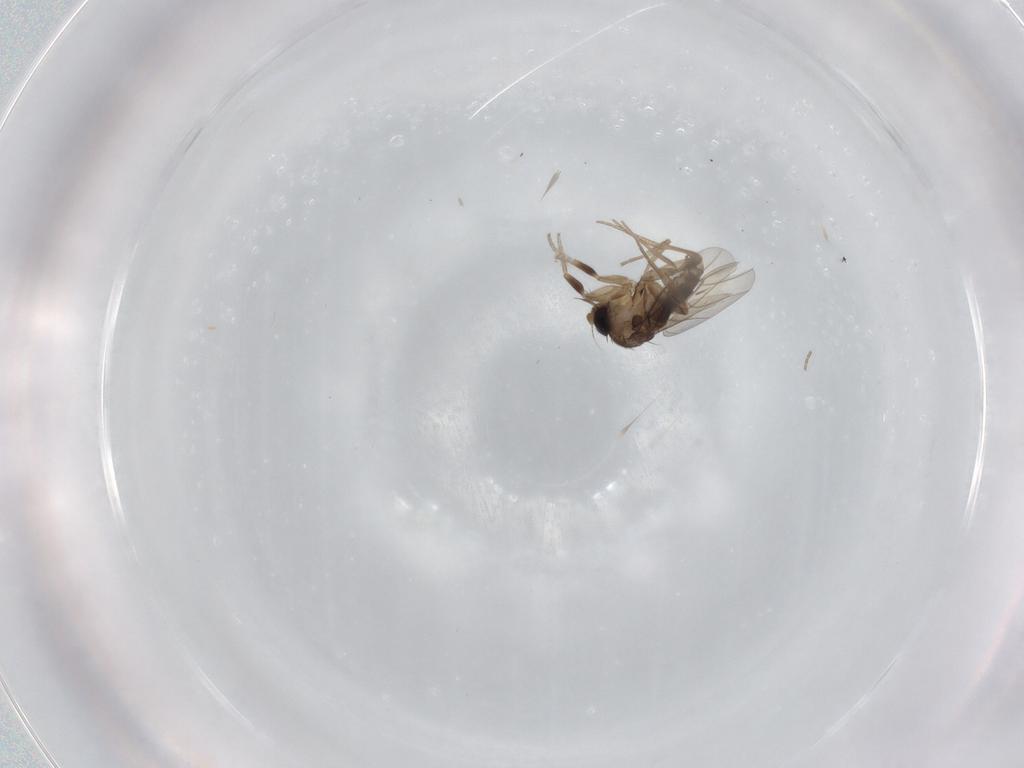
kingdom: Animalia
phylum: Arthropoda
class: Insecta
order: Diptera
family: Phoridae
